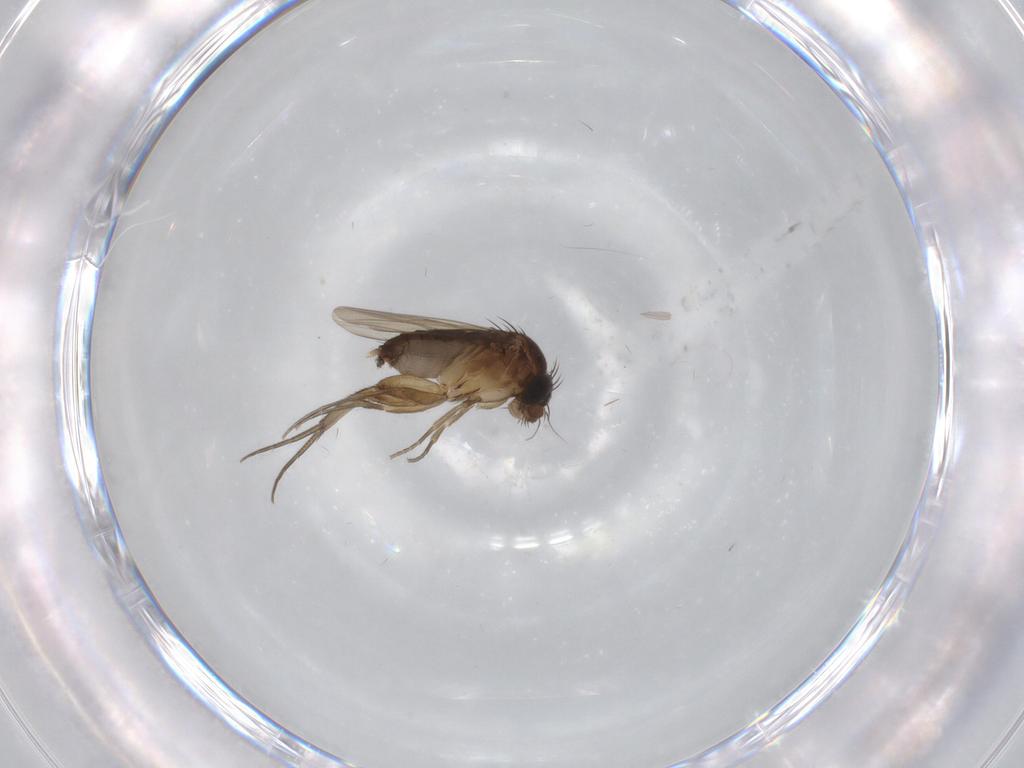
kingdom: Animalia
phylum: Arthropoda
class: Insecta
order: Diptera
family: Phoridae
